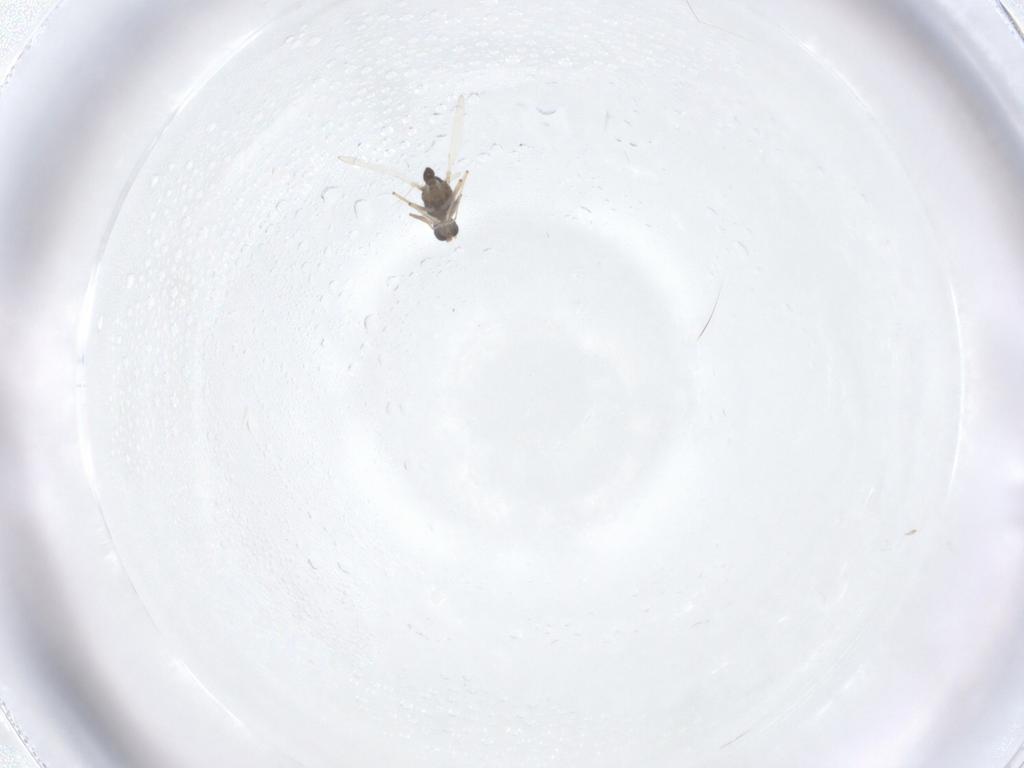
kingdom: Animalia
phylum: Arthropoda
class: Insecta
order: Diptera
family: Chironomidae
